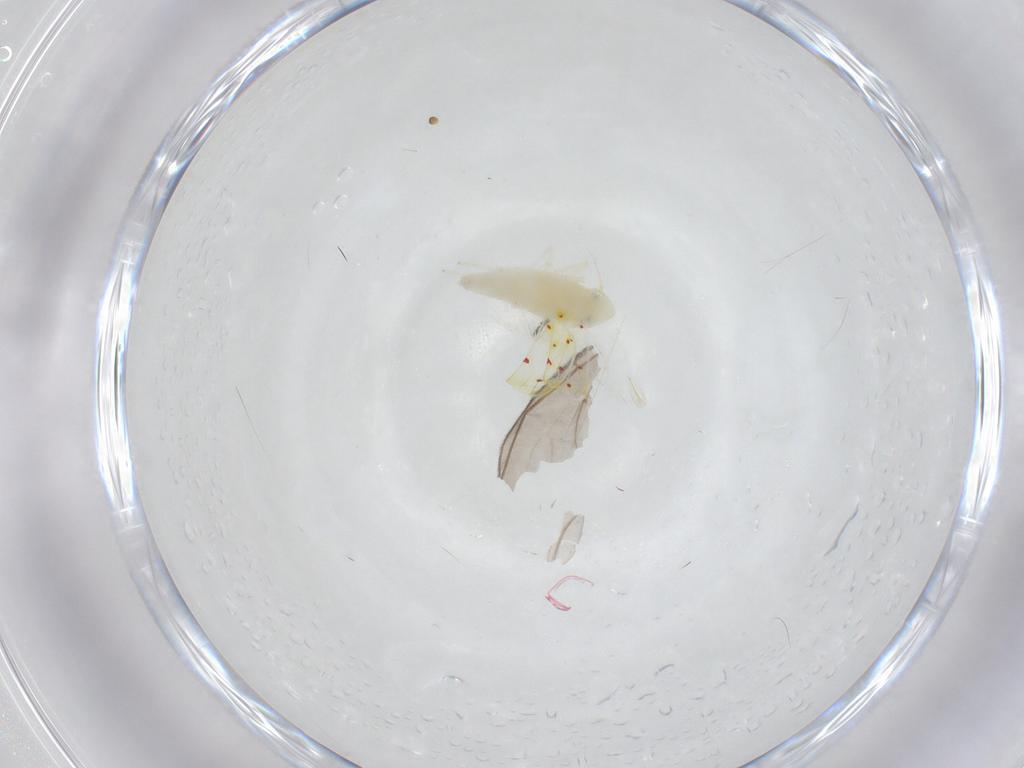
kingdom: Animalia
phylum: Arthropoda
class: Insecta
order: Diptera
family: Sciaridae
